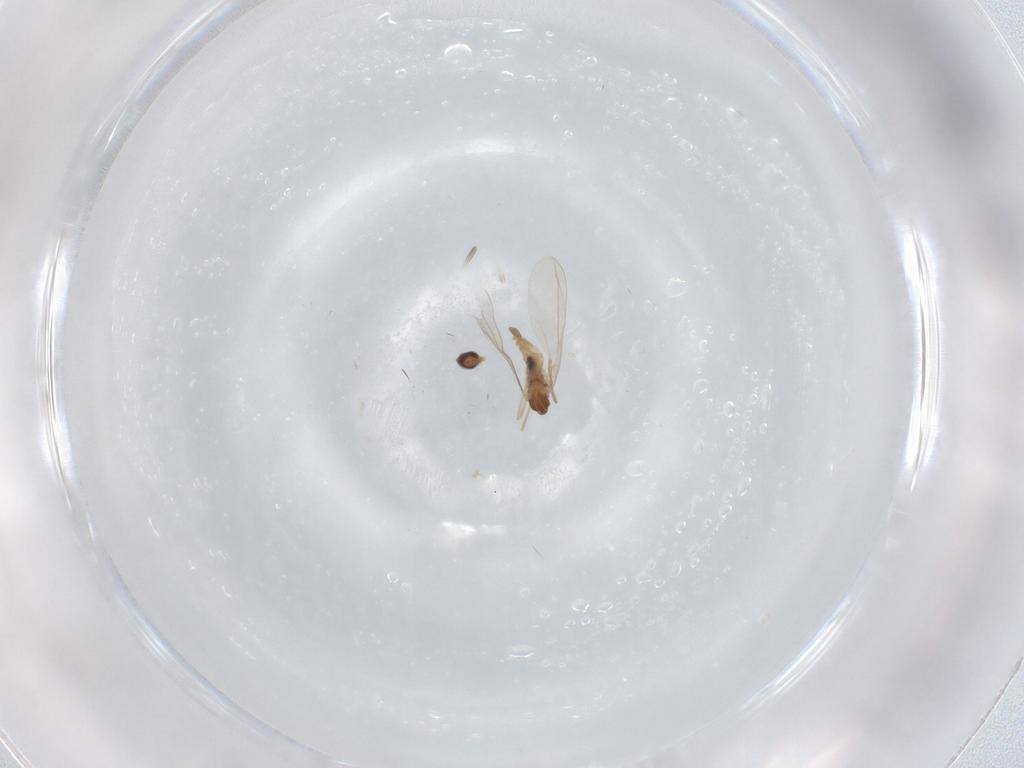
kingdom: Animalia
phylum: Arthropoda
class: Insecta
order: Diptera
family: Cecidomyiidae
